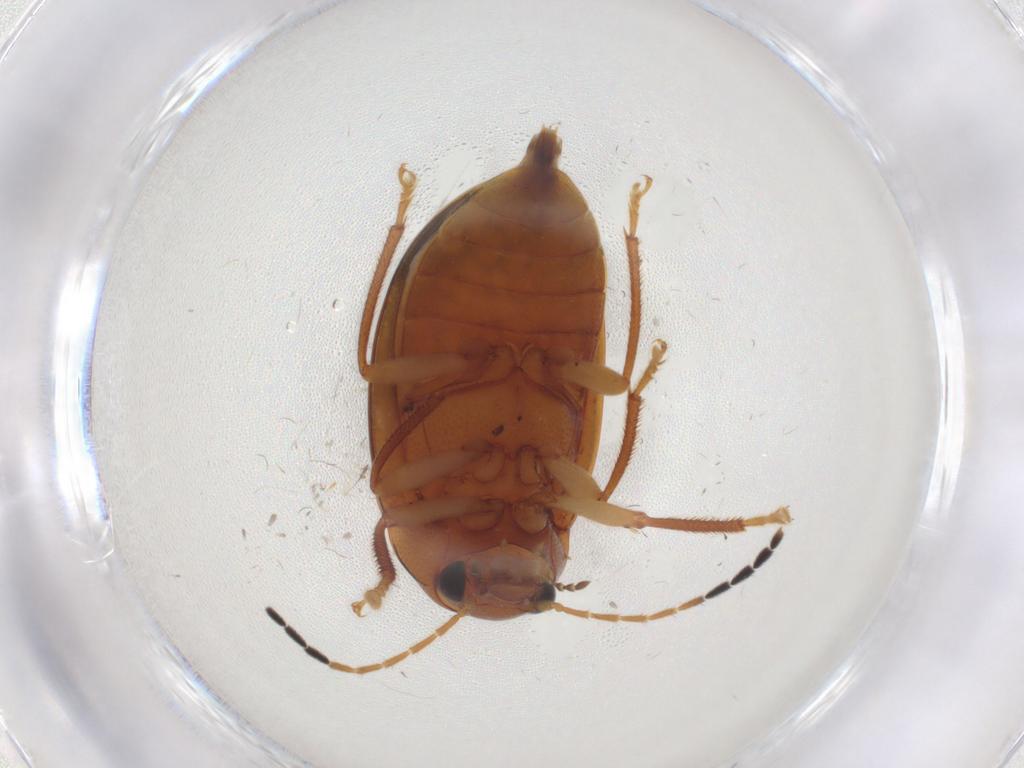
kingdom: Animalia
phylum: Arthropoda
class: Insecta
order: Coleoptera
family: Ptilodactylidae
